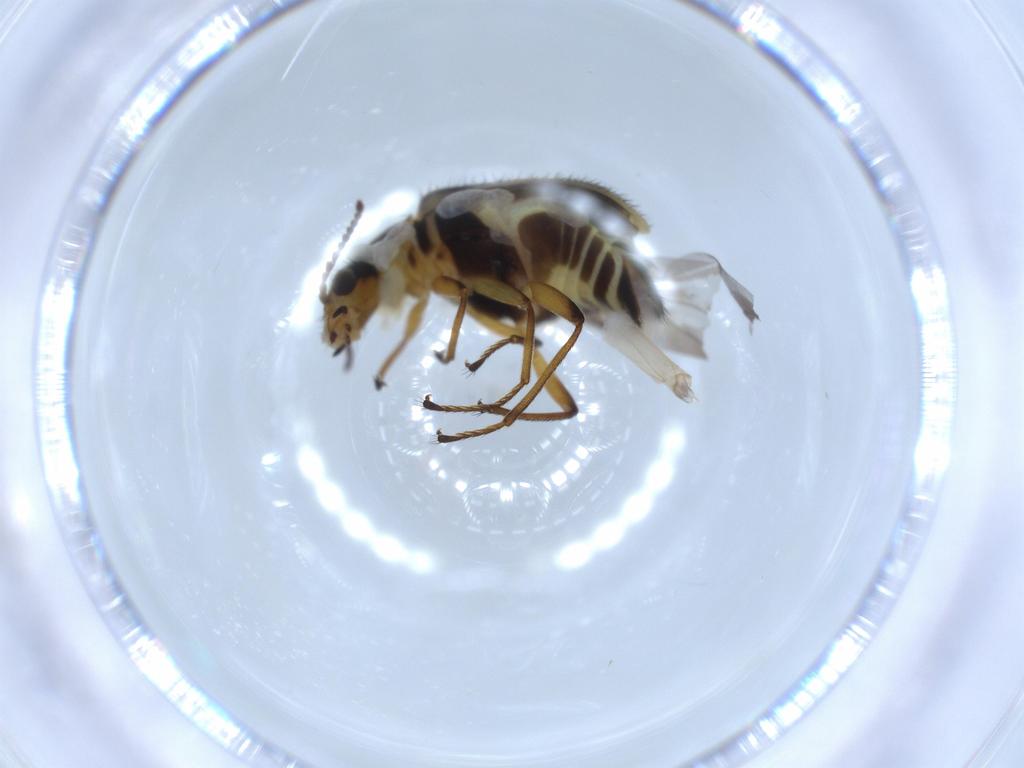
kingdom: Animalia
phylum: Arthropoda
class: Insecta
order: Coleoptera
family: Melyridae
